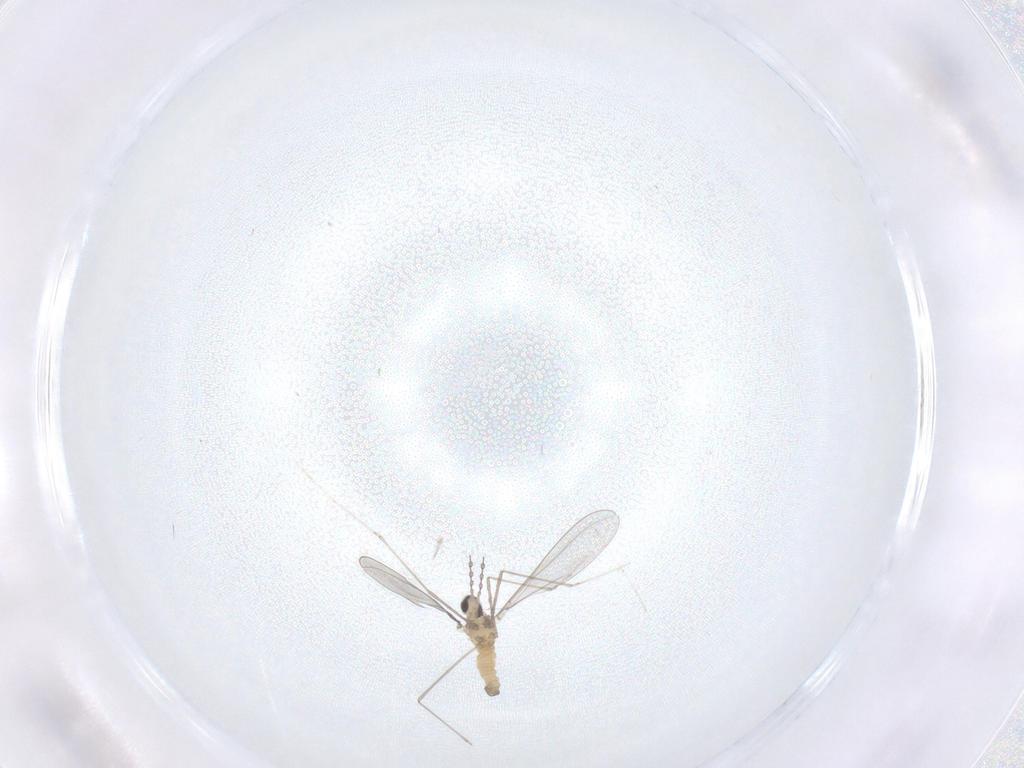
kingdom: Animalia
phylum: Arthropoda
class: Insecta
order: Diptera
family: Cecidomyiidae
